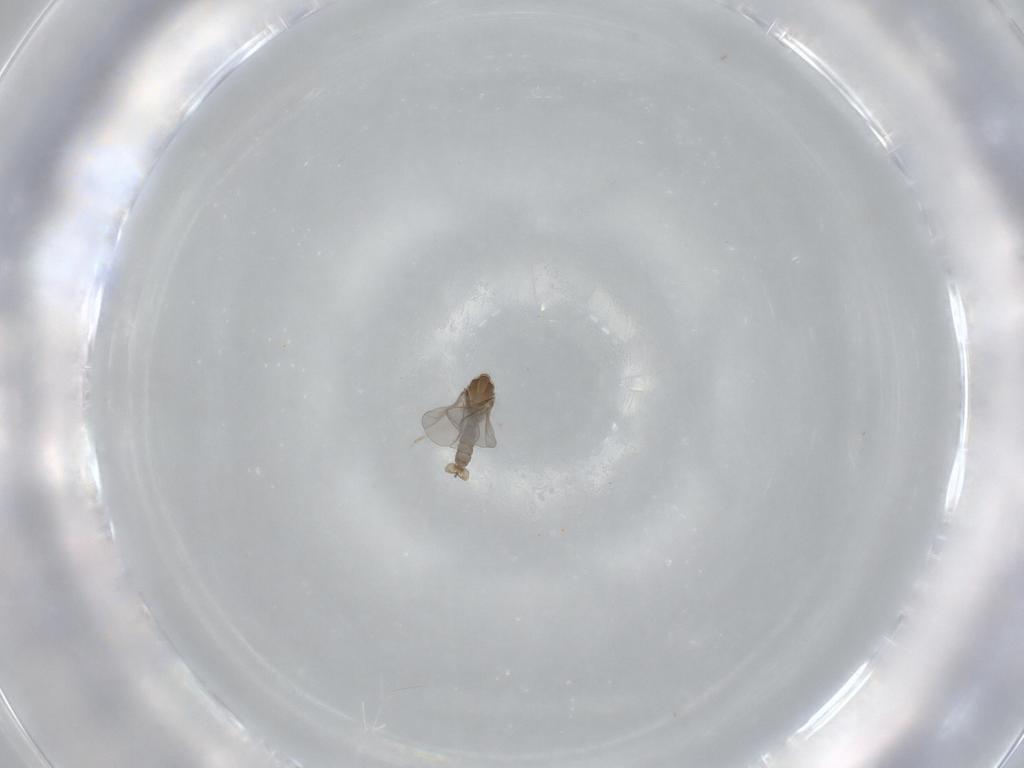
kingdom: Animalia
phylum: Arthropoda
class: Insecta
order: Diptera
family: Cecidomyiidae
